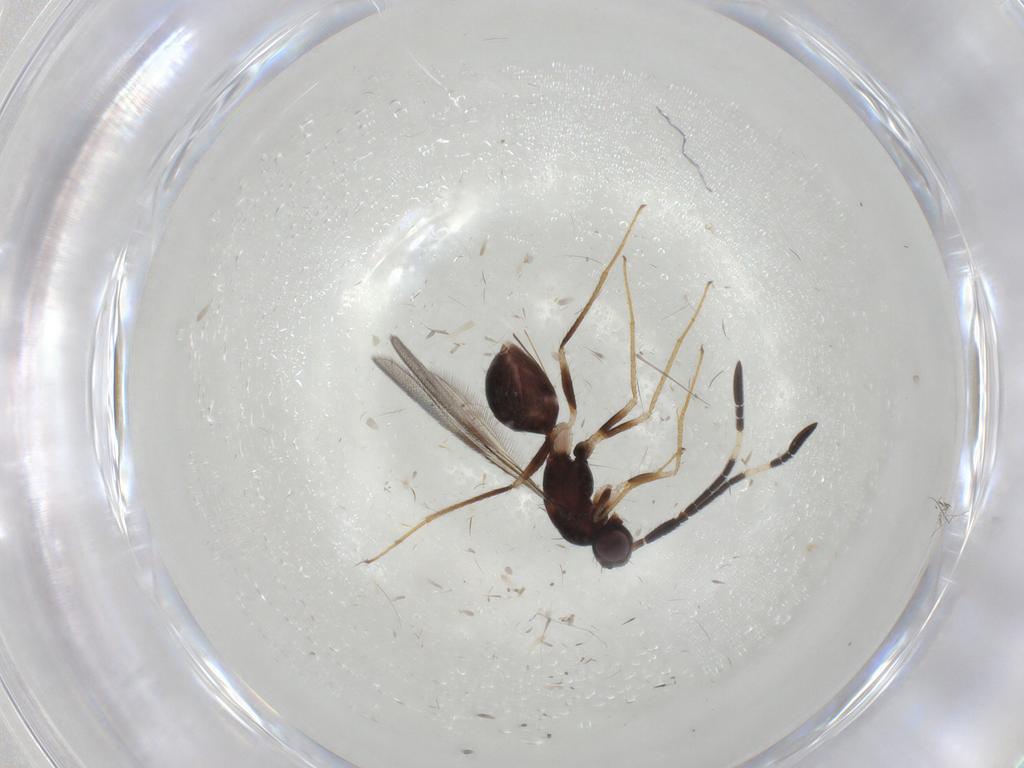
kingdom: Animalia
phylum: Arthropoda
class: Insecta
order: Hymenoptera
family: Mymaridae
